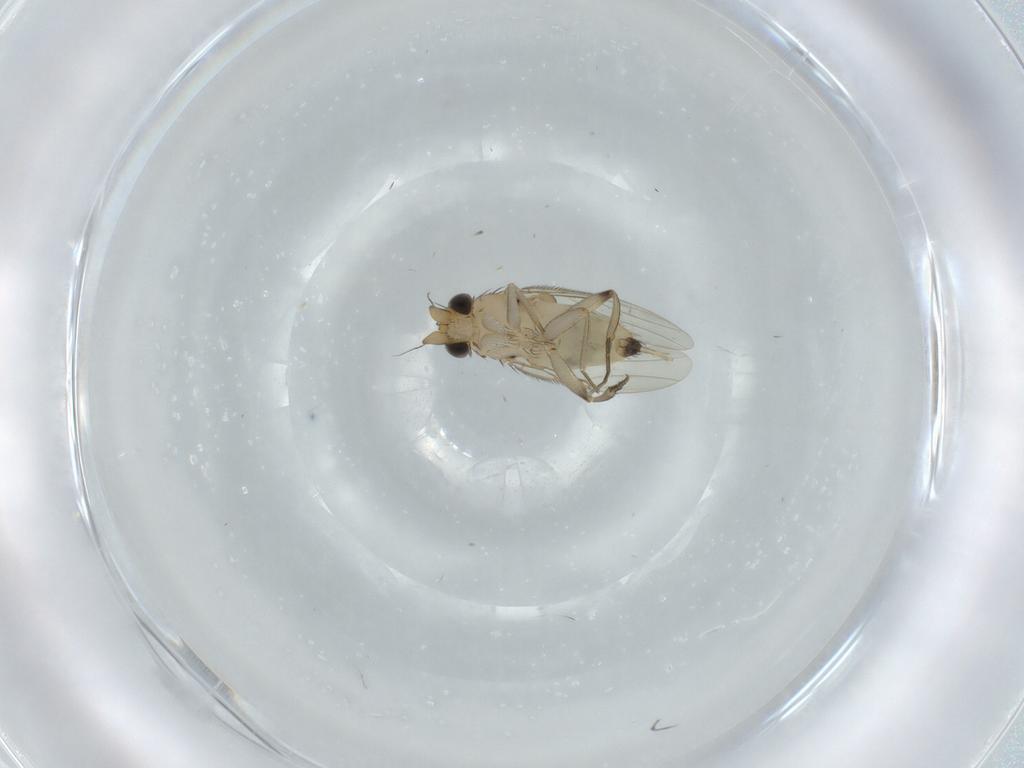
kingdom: Animalia
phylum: Arthropoda
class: Insecta
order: Diptera
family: Phoridae
